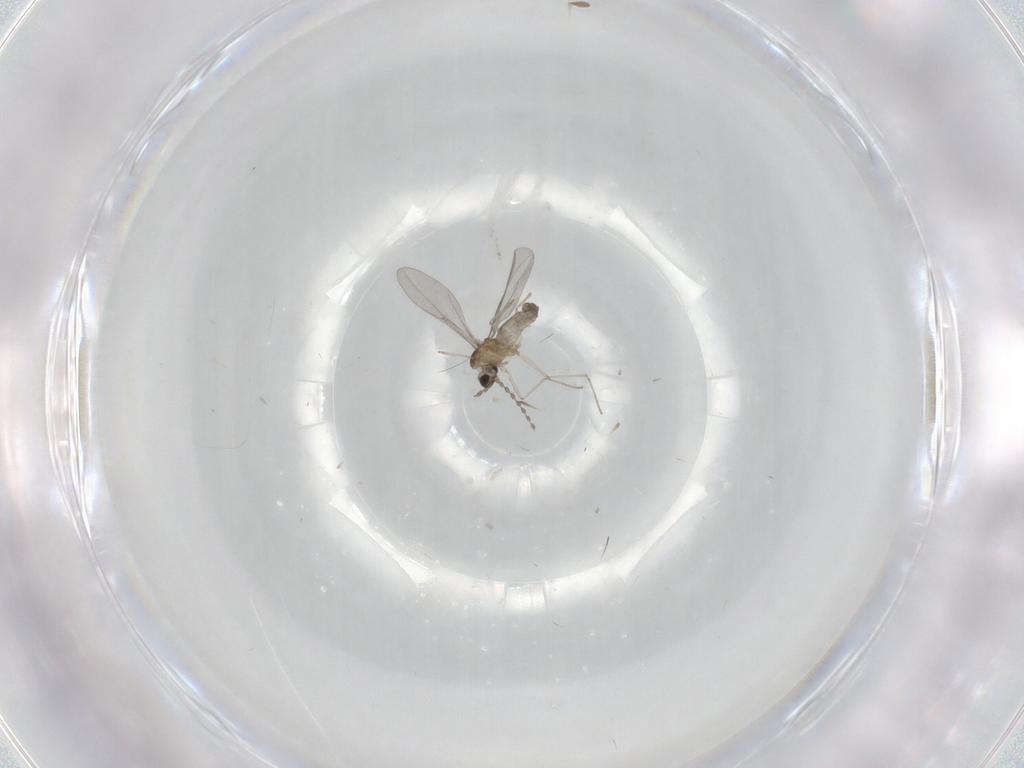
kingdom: Animalia
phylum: Arthropoda
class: Insecta
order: Diptera
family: Cecidomyiidae
